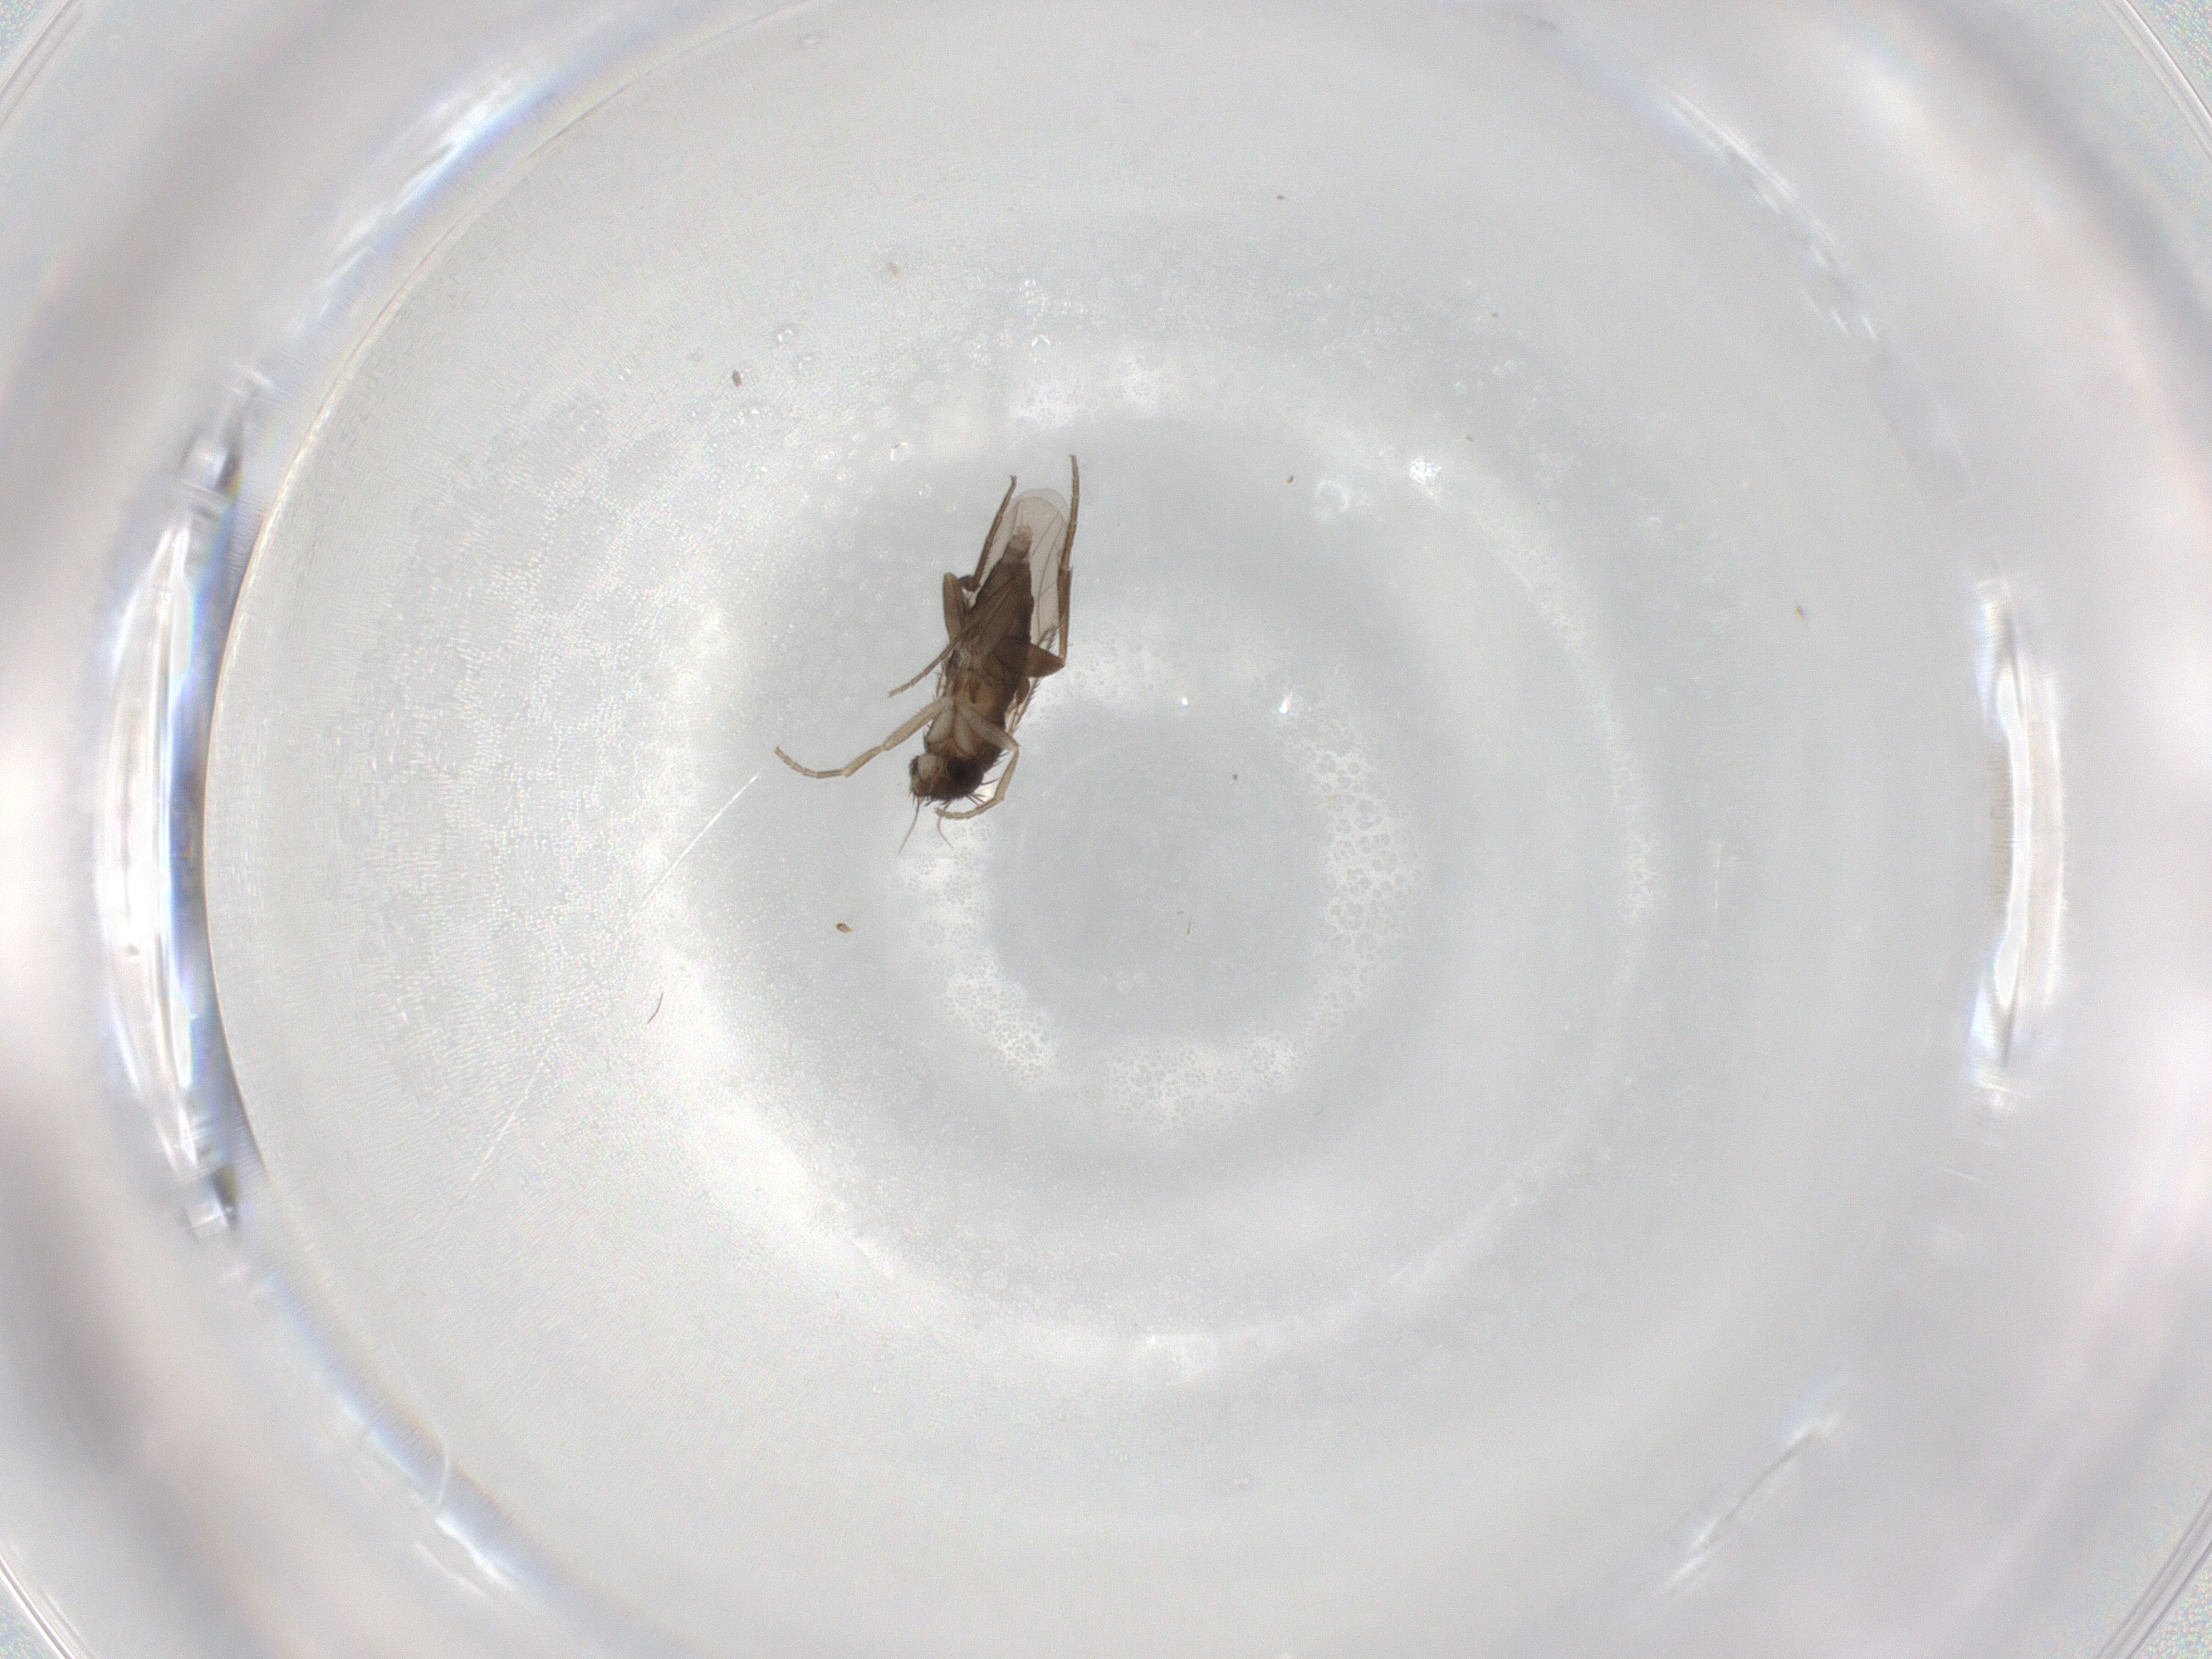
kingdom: Animalia
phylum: Arthropoda
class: Insecta
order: Diptera
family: Phoridae
